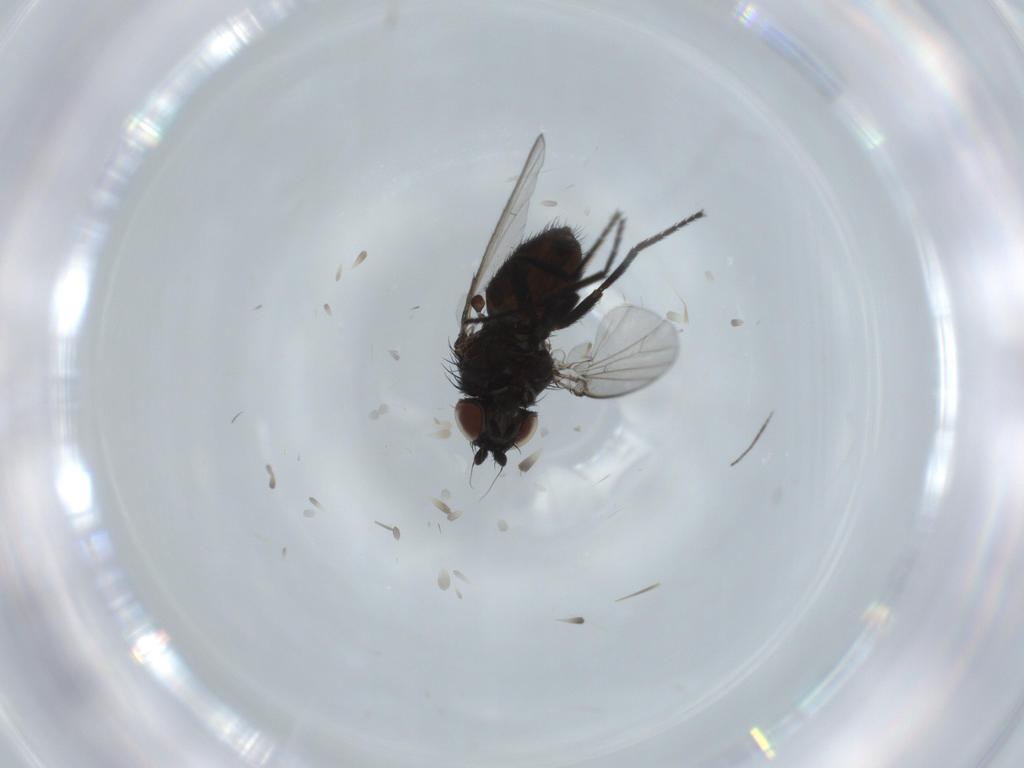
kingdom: Animalia
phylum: Arthropoda
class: Insecta
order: Diptera
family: Milichiidae
